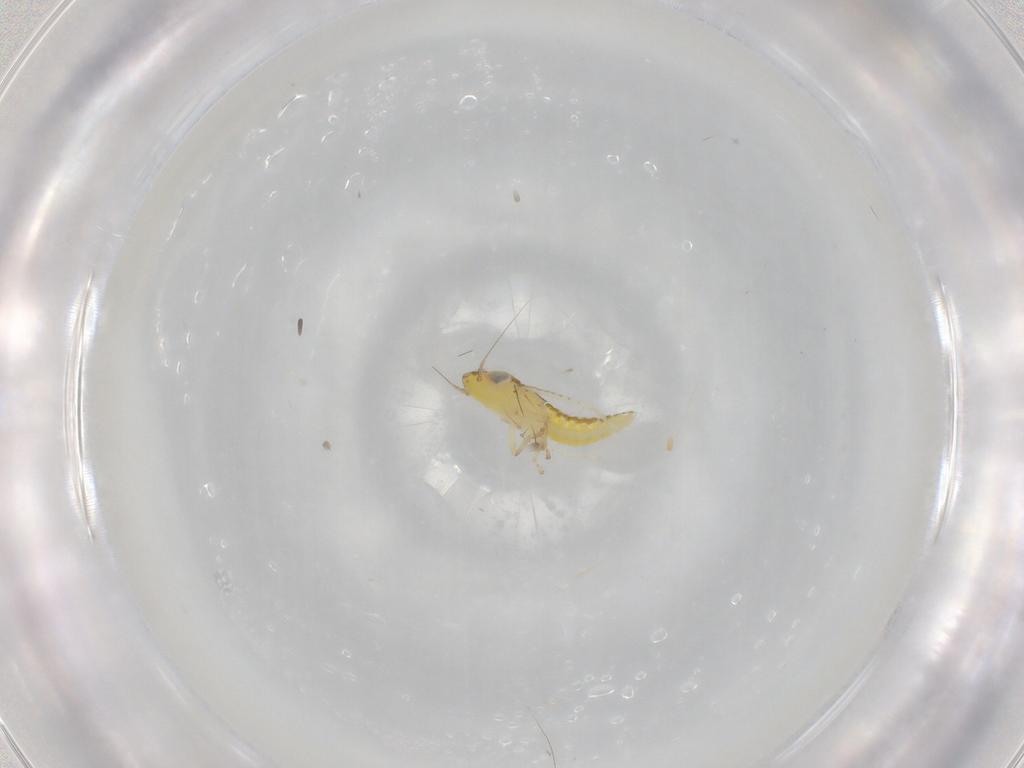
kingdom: Animalia
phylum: Arthropoda
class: Insecta
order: Hemiptera
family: Cicadellidae
